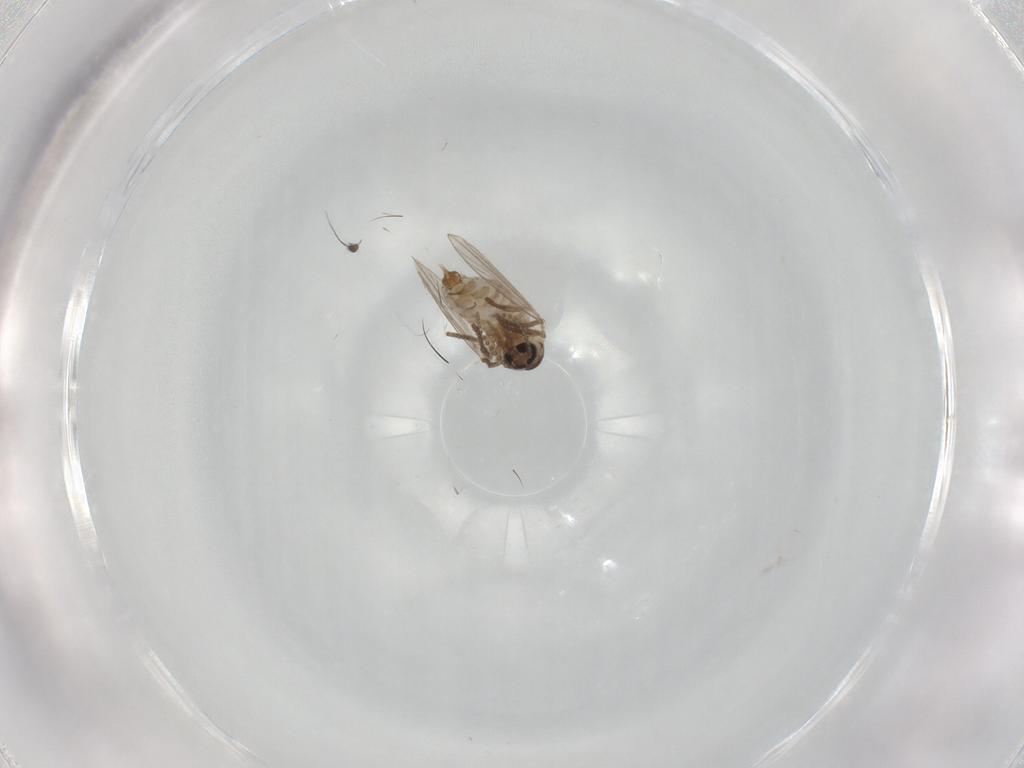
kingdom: Animalia
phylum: Arthropoda
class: Insecta
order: Diptera
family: Psychodidae
